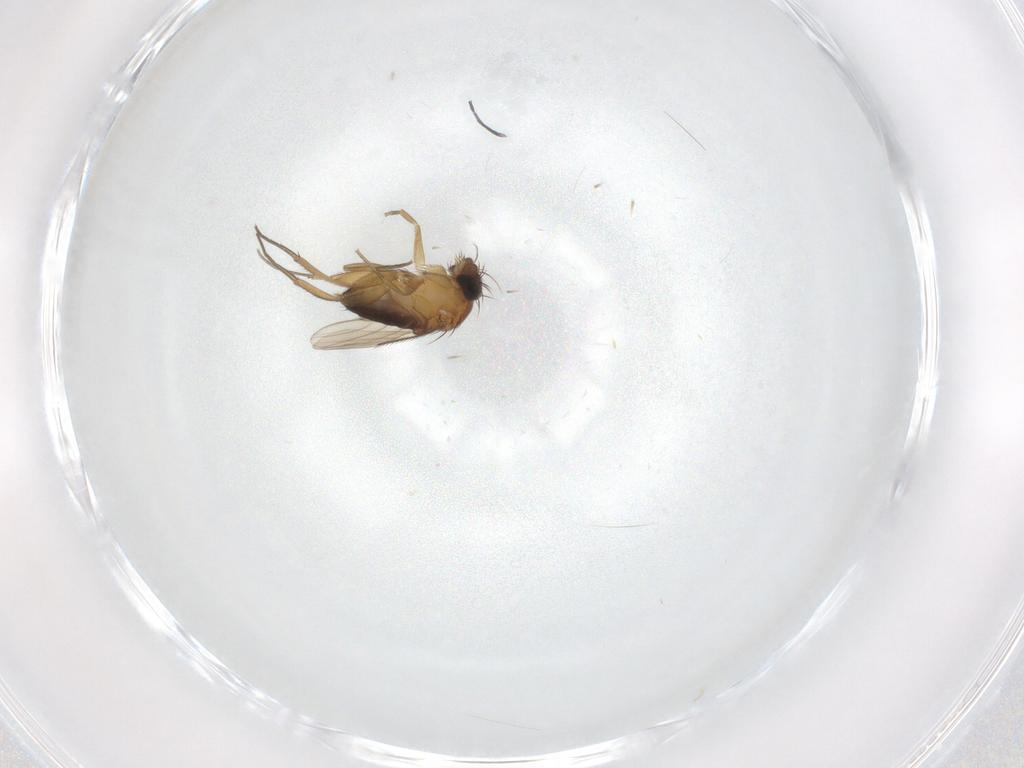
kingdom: Animalia
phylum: Arthropoda
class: Insecta
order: Diptera
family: Phoridae
